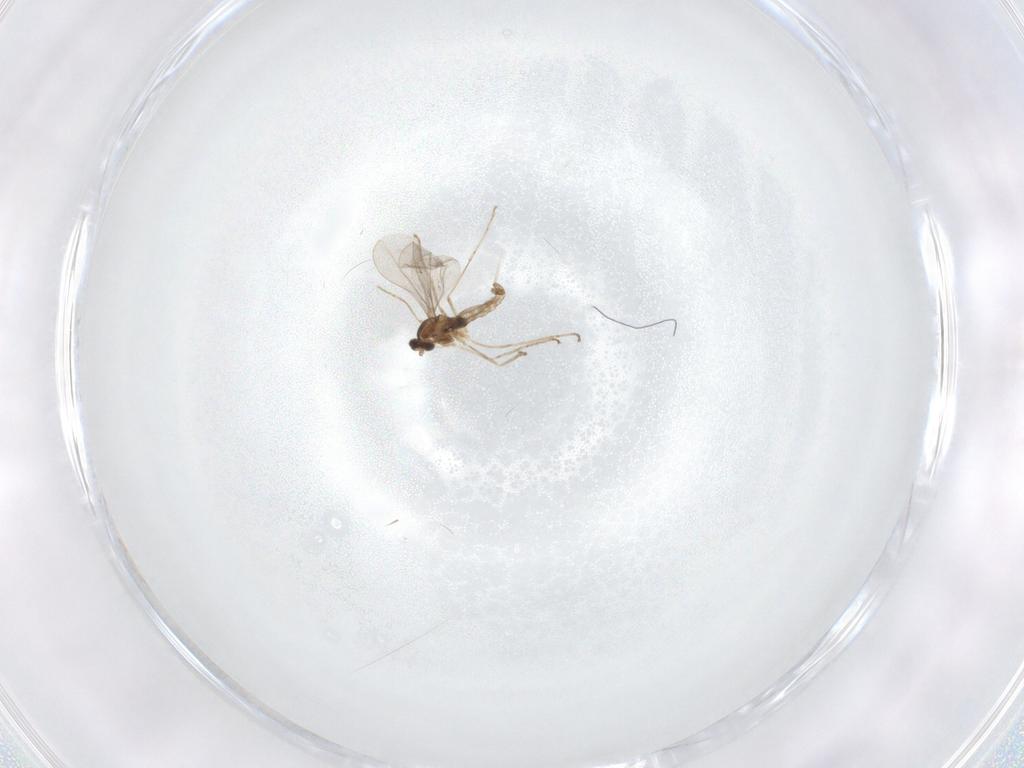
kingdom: Animalia
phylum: Arthropoda
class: Insecta
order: Diptera
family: Cecidomyiidae
